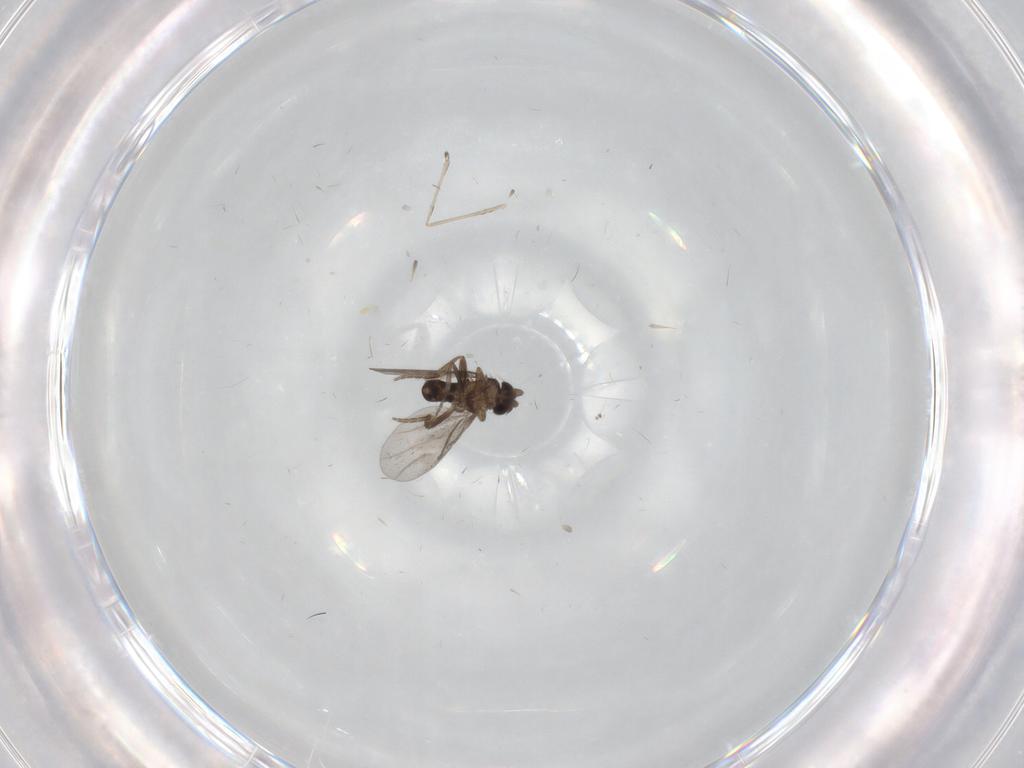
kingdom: Animalia
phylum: Arthropoda
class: Insecta
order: Diptera
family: Cecidomyiidae
